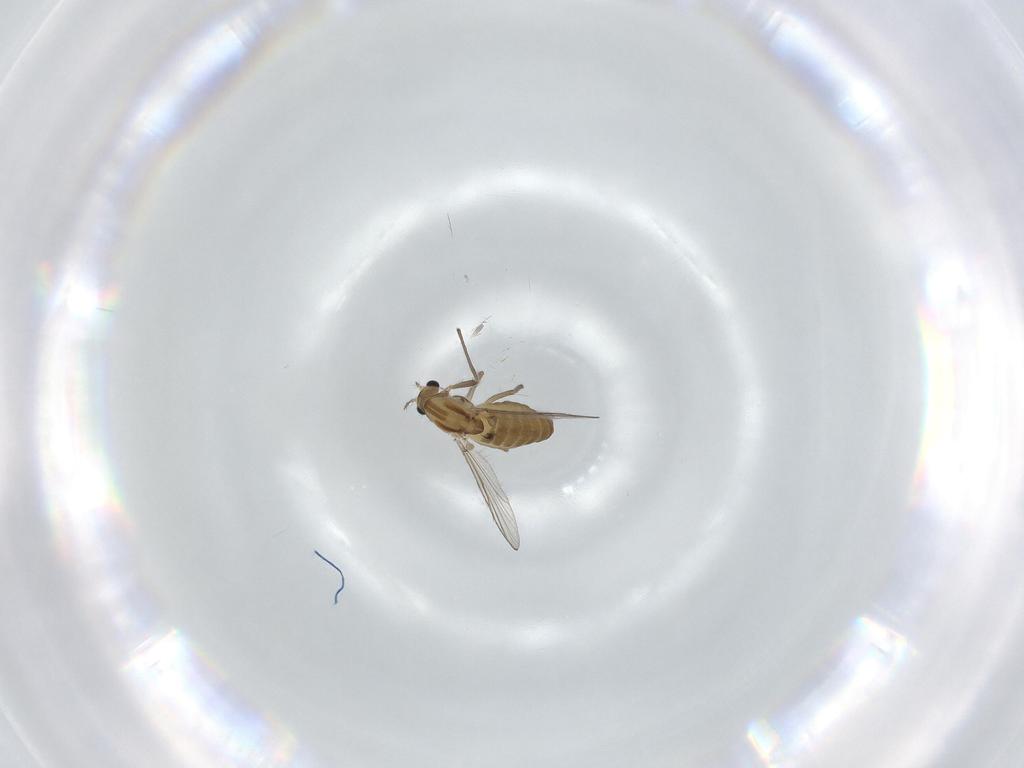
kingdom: Animalia
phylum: Arthropoda
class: Insecta
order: Diptera
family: Chironomidae
